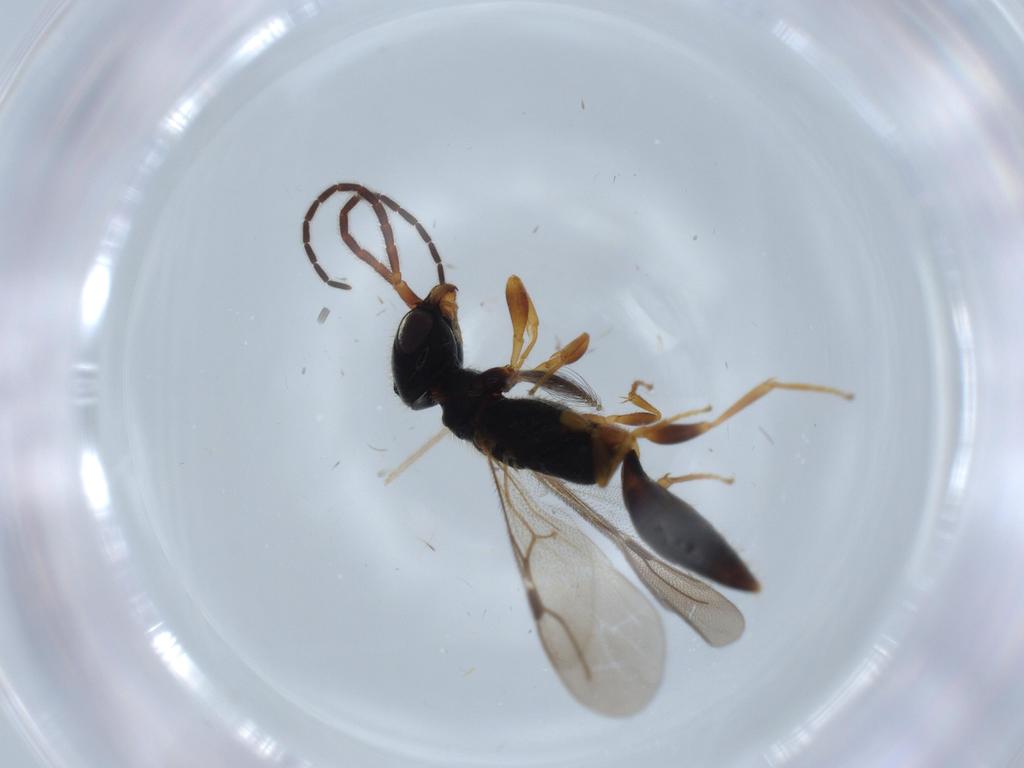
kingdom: Animalia
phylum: Arthropoda
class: Insecta
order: Hymenoptera
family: Bethylidae
